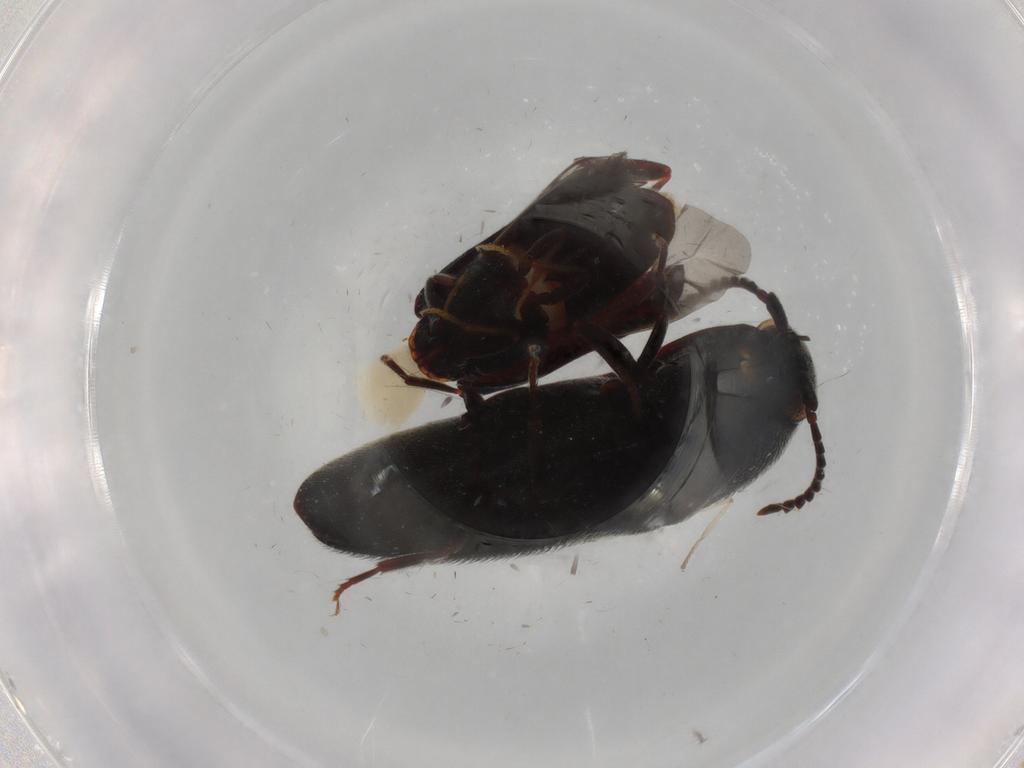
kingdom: Animalia
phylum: Arthropoda
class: Insecta
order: Coleoptera
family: Eucnemidae
